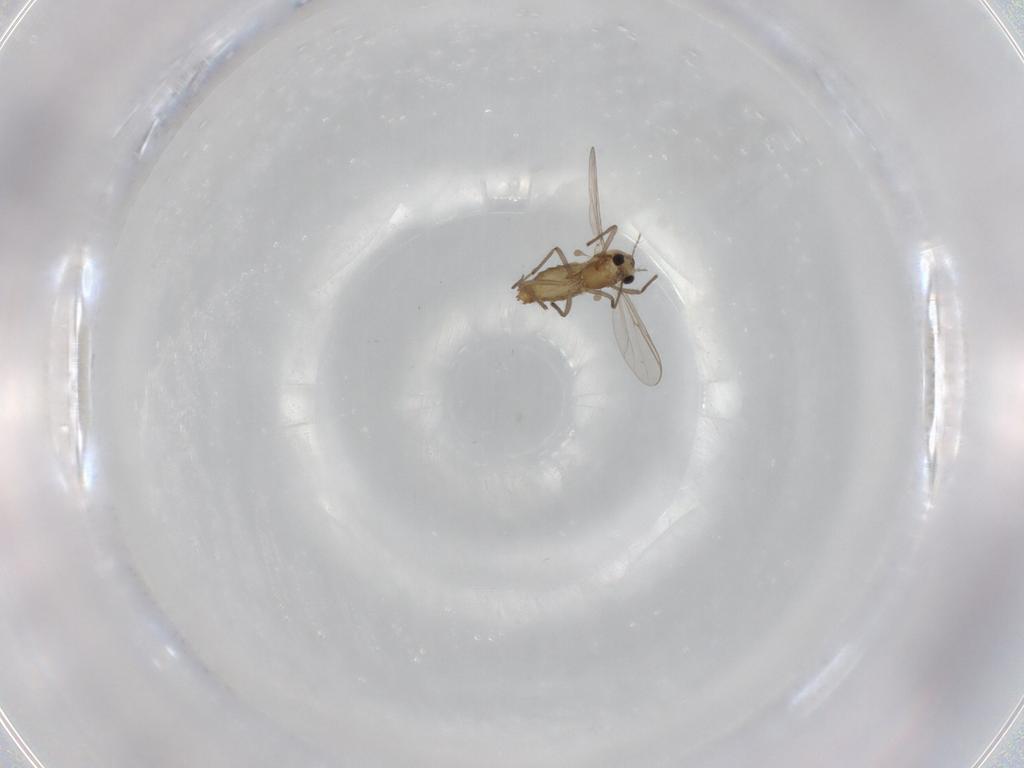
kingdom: Animalia
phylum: Arthropoda
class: Insecta
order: Diptera
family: Chironomidae
